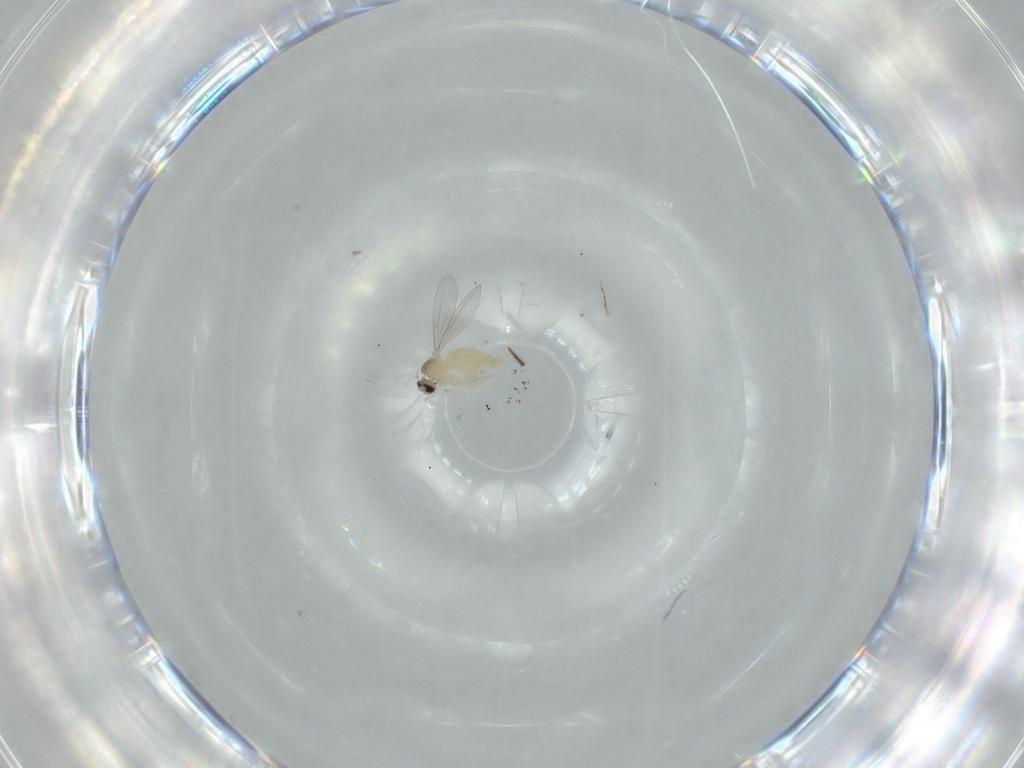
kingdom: Animalia
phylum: Arthropoda
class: Insecta
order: Diptera
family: Cecidomyiidae
